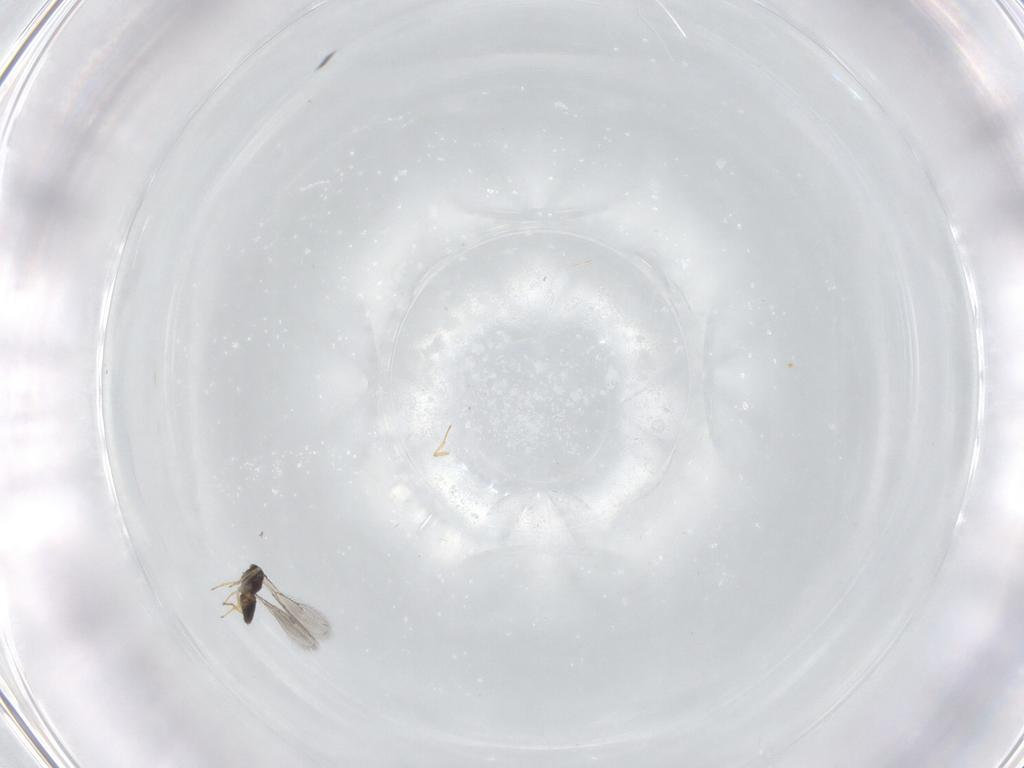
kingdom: Animalia
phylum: Arthropoda
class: Insecta
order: Hymenoptera
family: Eulophidae
